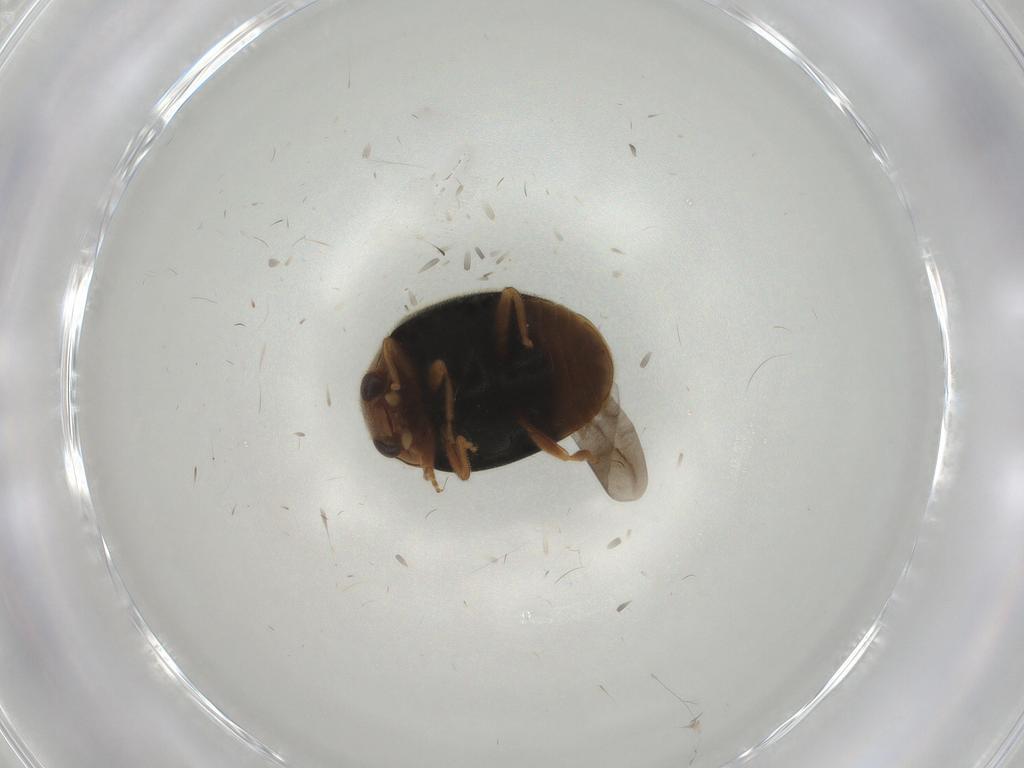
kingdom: Animalia
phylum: Arthropoda
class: Insecta
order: Coleoptera
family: Coccinellidae
